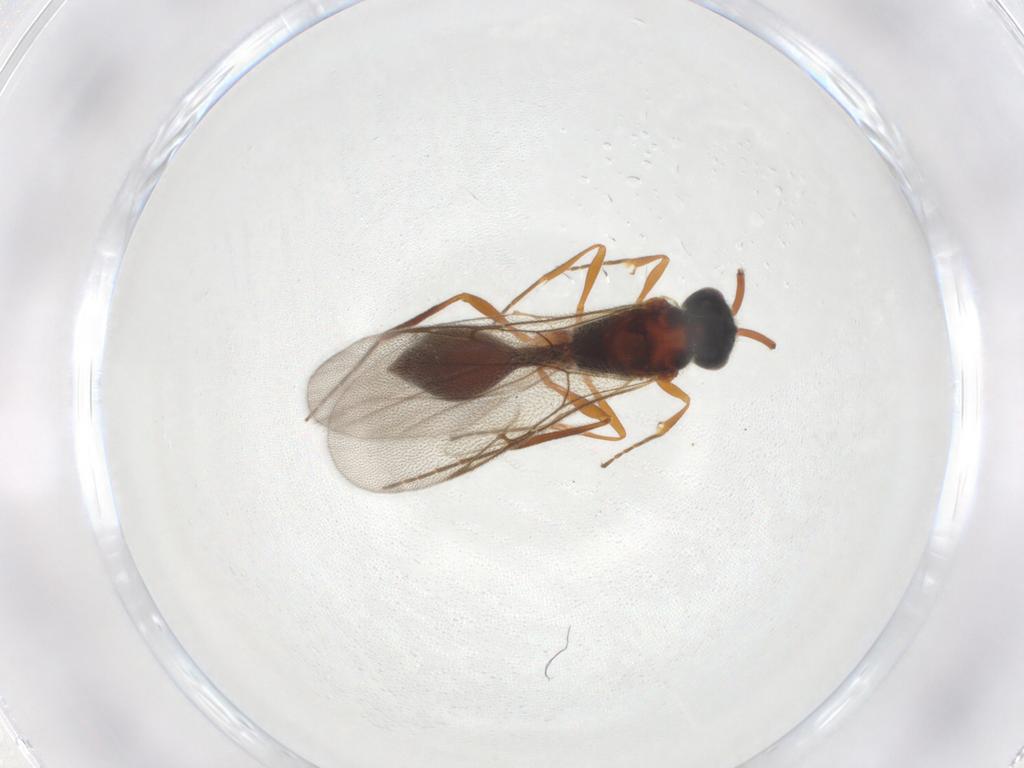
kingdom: Animalia
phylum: Arthropoda
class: Insecta
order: Hymenoptera
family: Diapriidae
